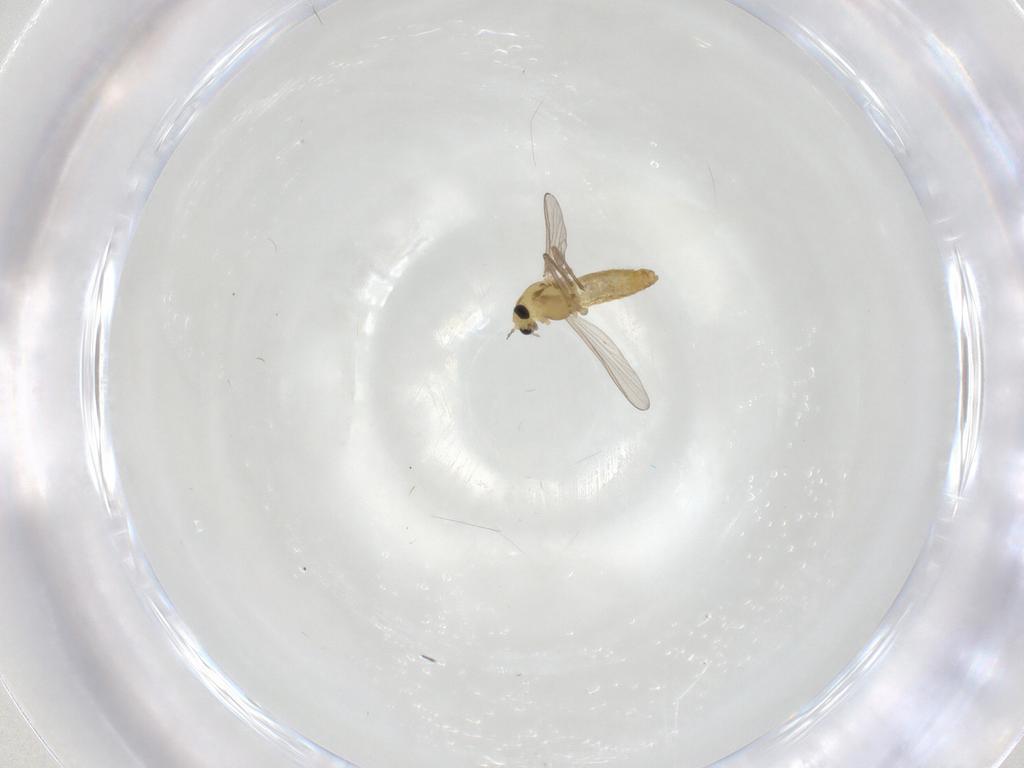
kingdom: Animalia
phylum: Arthropoda
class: Insecta
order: Diptera
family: Chironomidae
